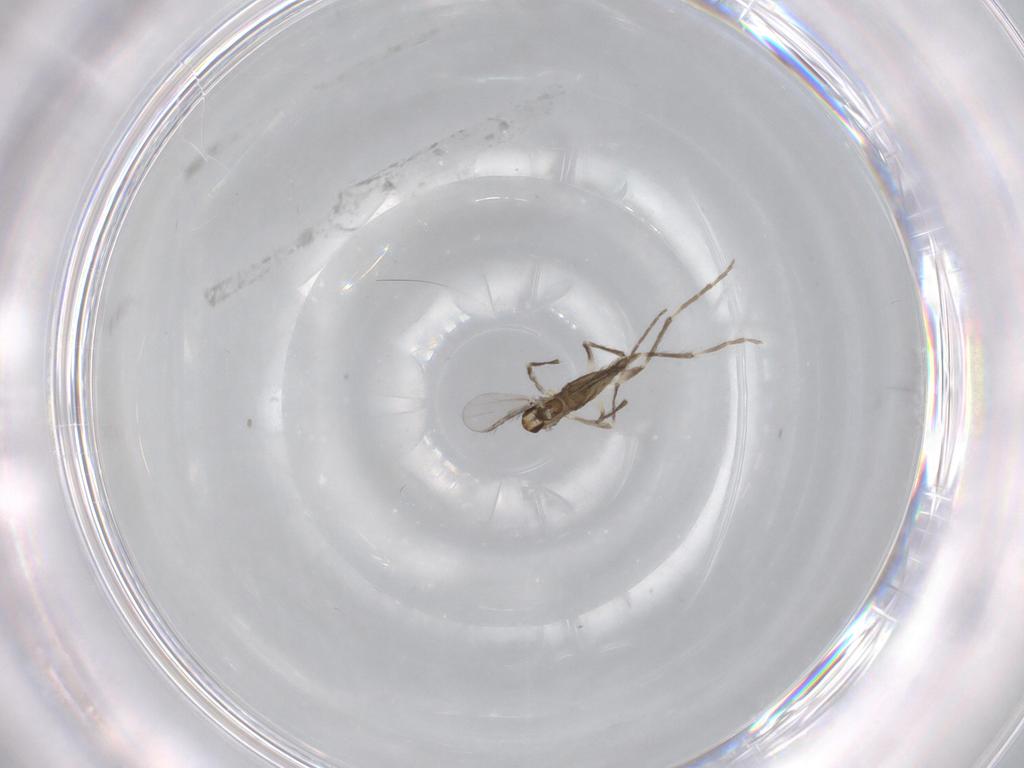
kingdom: Animalia
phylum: Arthropoda
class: Insecta
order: Diptera
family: Chironomidae
